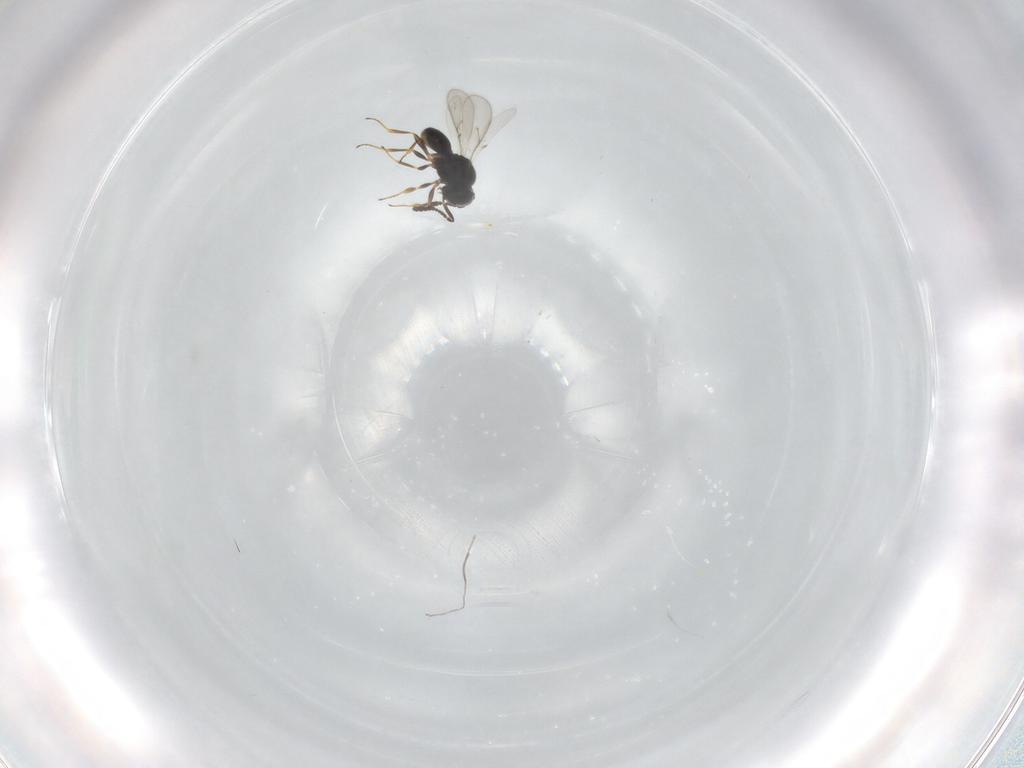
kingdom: Animalia
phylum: Arthropoda
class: Insecta
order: Hymenoptera
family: Scelionidae
